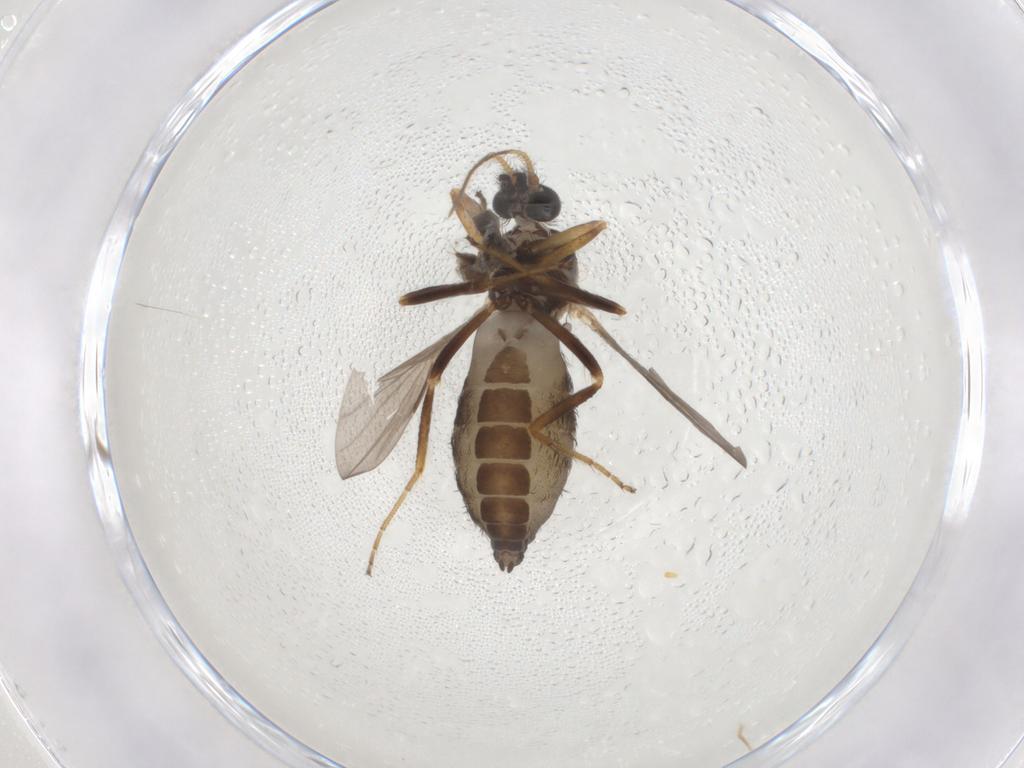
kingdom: Animalia
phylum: Arthropoda
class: Insecta
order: Diptera
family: Ceratopogonidae
